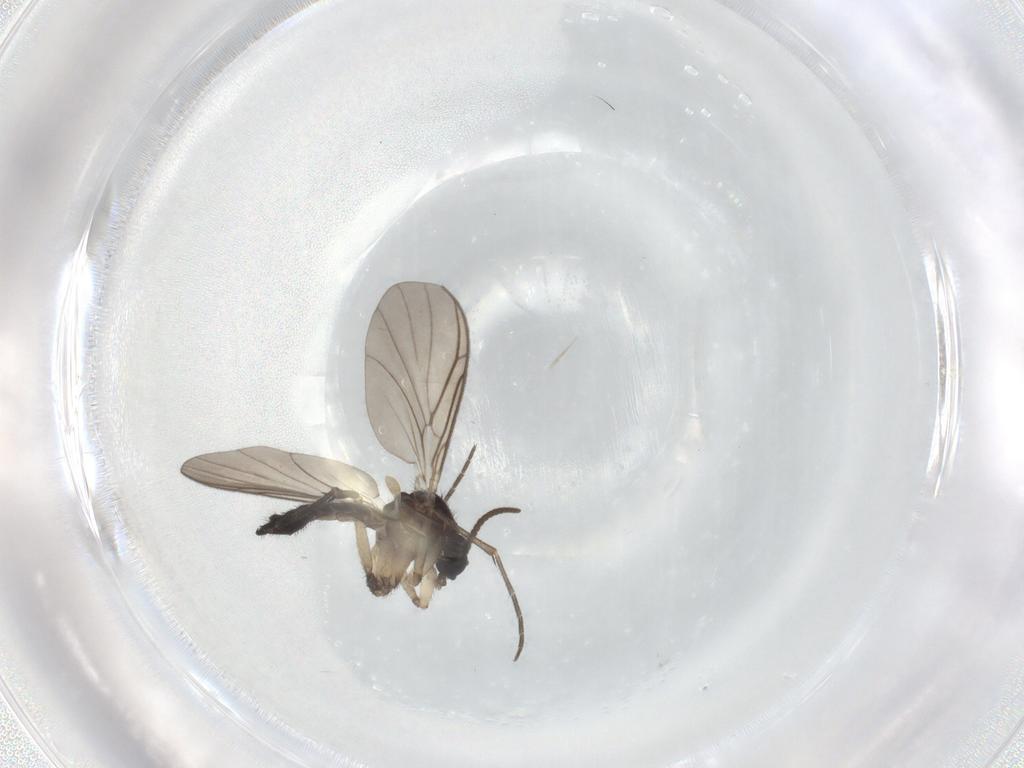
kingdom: Animalia
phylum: Arthropoda
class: Insecta
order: Diptera
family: Keroplatidae
